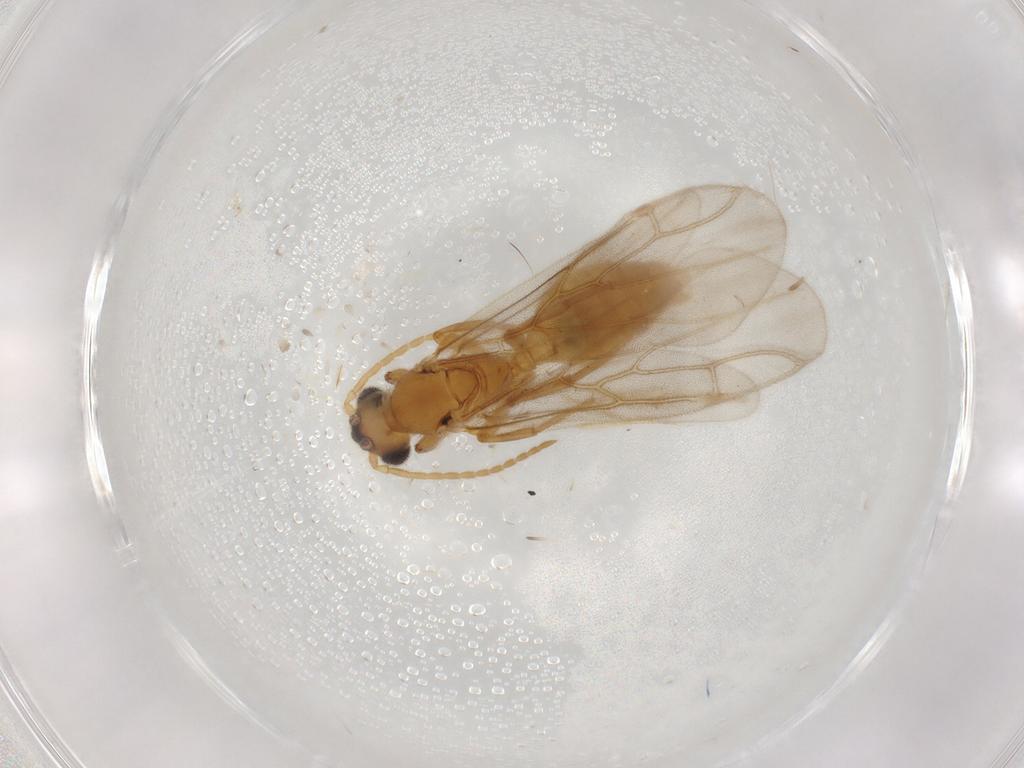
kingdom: Animalia
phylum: Arthropoda
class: Insecta
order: Hymenoptera
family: Formicidae
